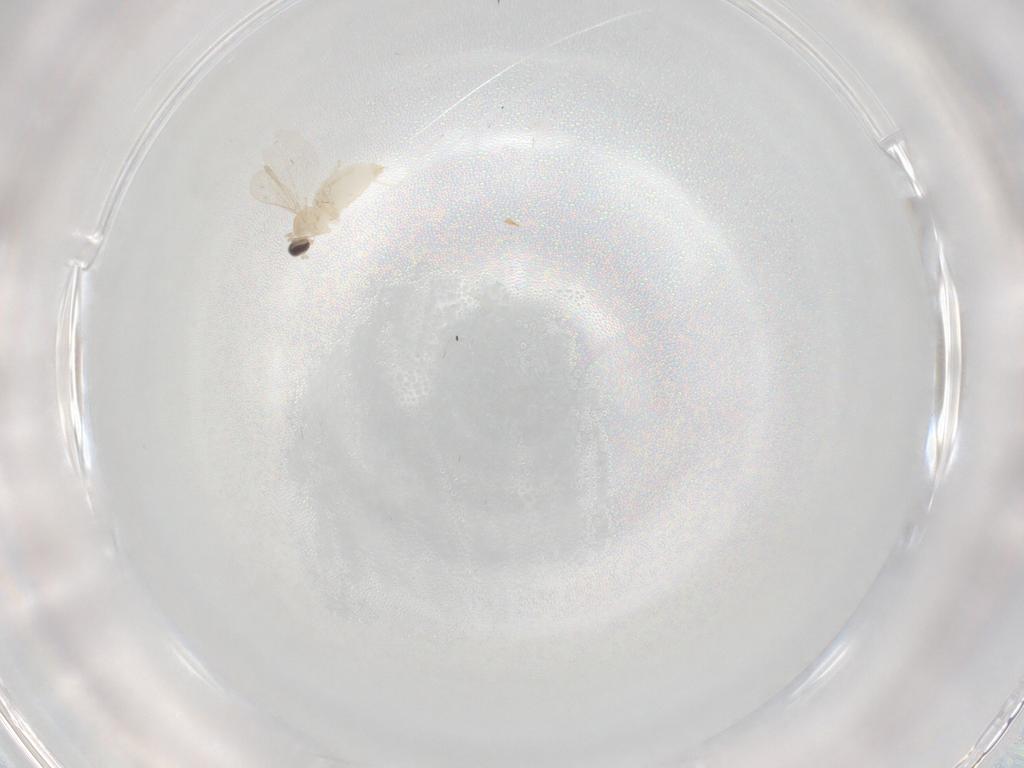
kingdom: Animalia
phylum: Arthropoda
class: Insecta
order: Diptera
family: Cecidomyiidae
